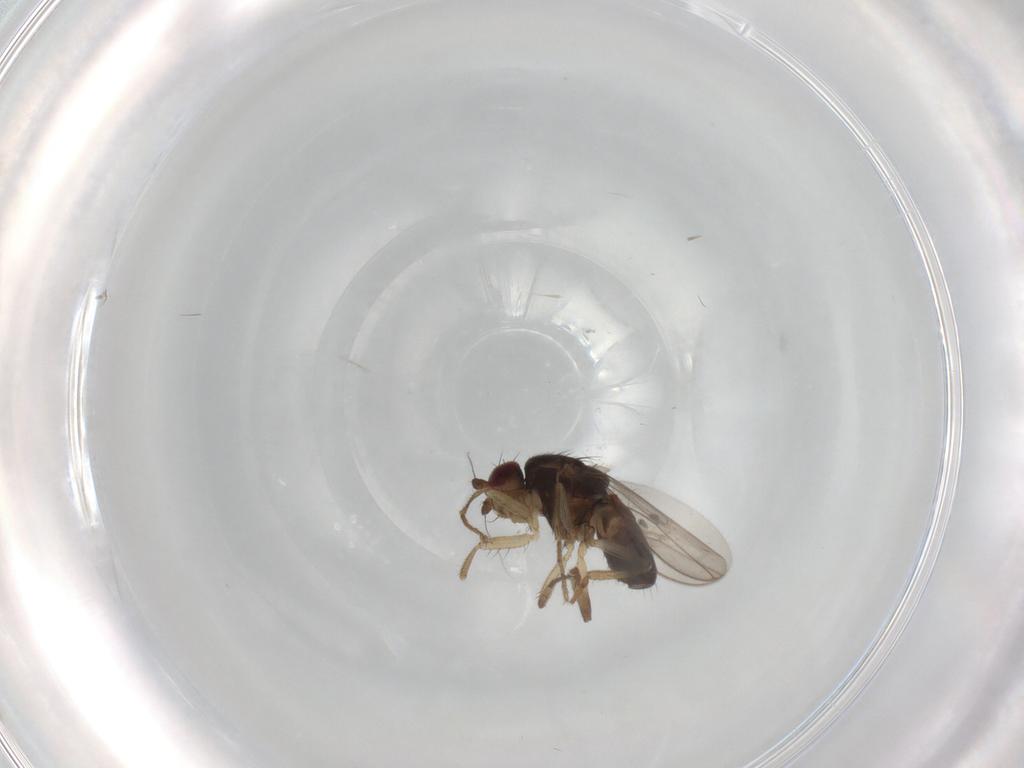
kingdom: Animalia
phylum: Arthropoda
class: Insecta
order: Diptera
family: Sphaeroceridae
